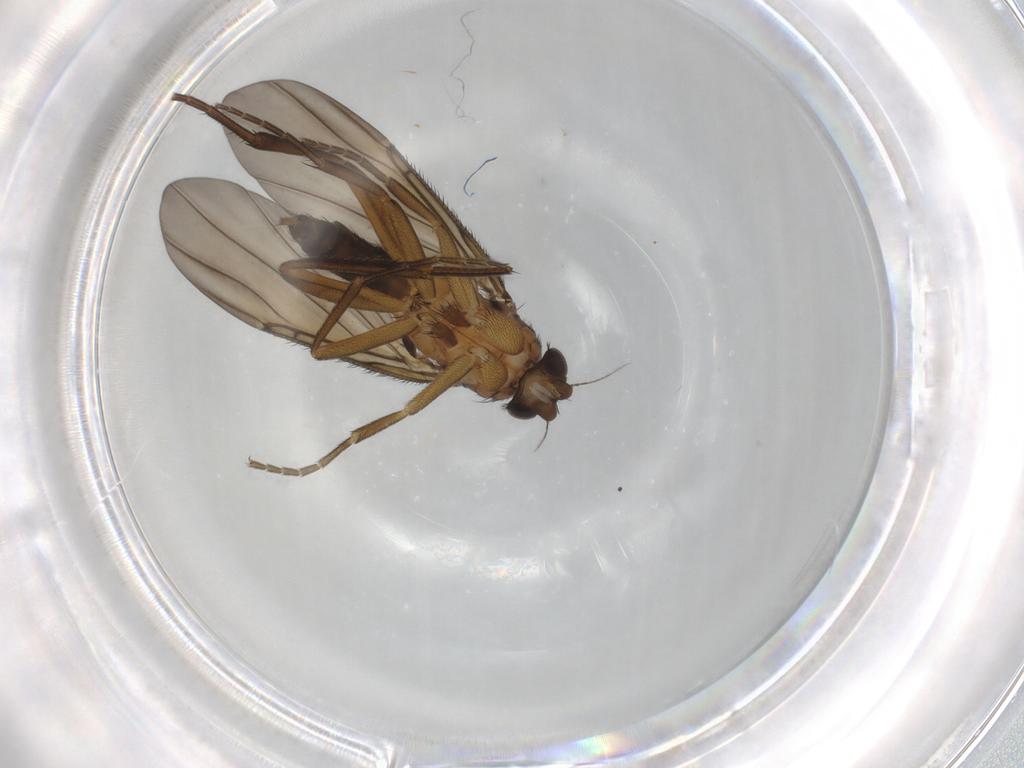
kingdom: Animalia
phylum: Arthropoda
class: Insecta
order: Diptera
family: Phoridae
